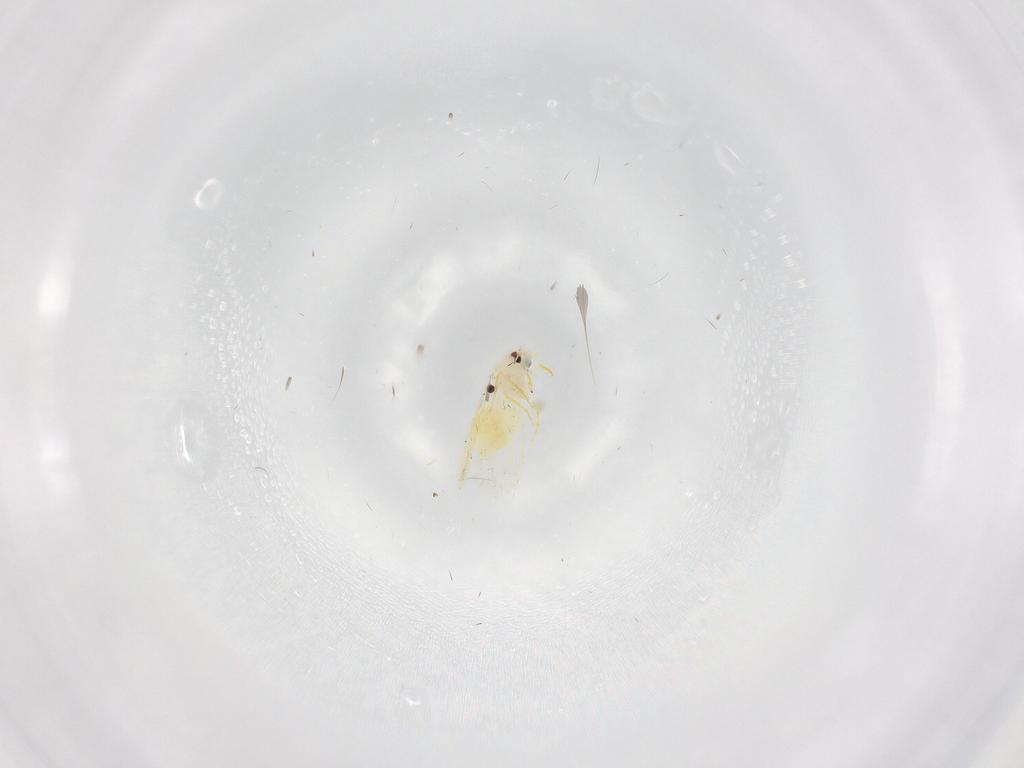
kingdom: Animalia
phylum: Arthropoda
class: Insecta
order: Hemiptera
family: Aleyrodidae
